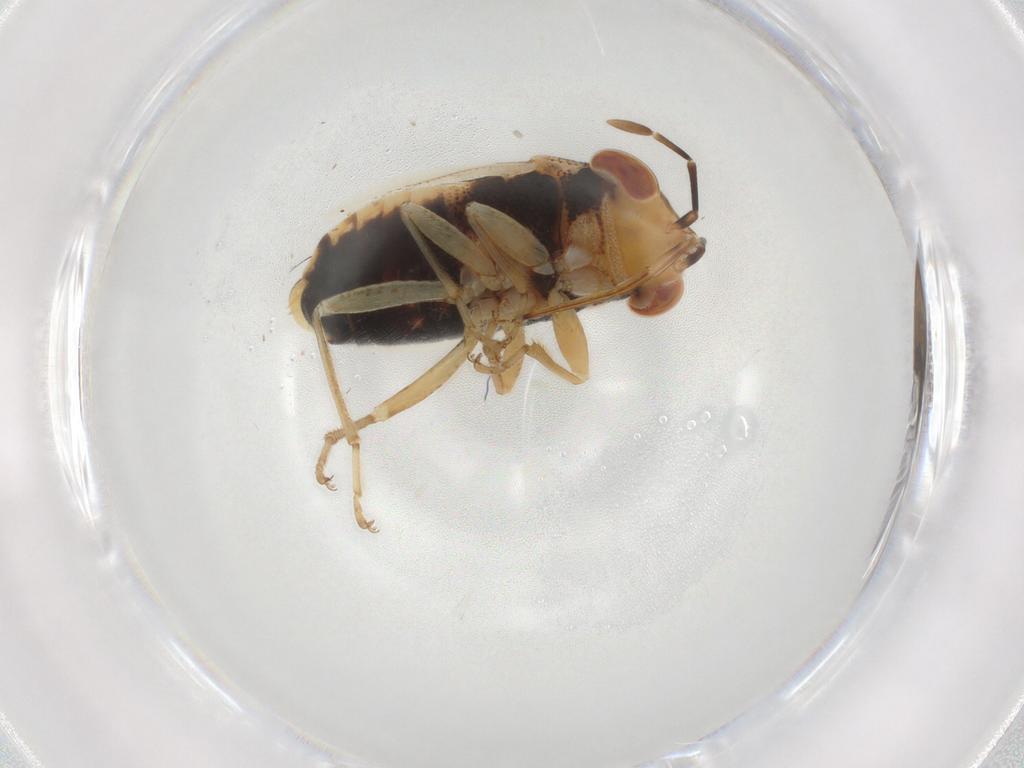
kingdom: Animalia
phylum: Arthropoda
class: Insecta
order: Hemiptera
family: Geocoridae
